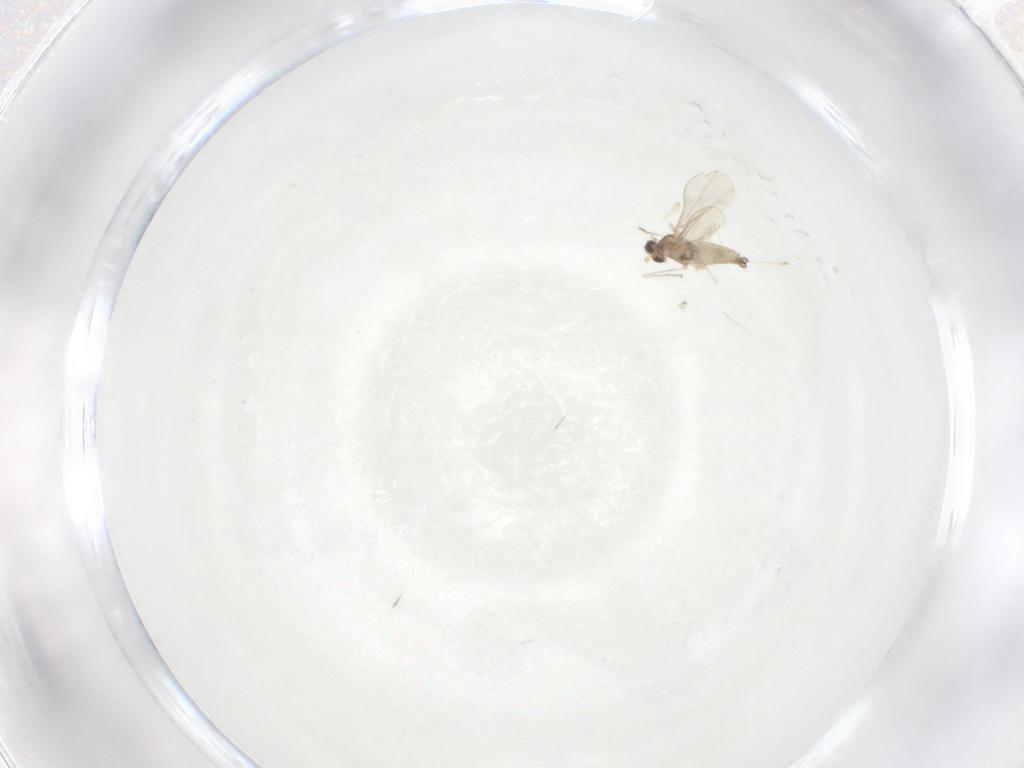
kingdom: Animalia
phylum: Arthropoda
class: Insecta
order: Diptera
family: Cecidomyiidae
